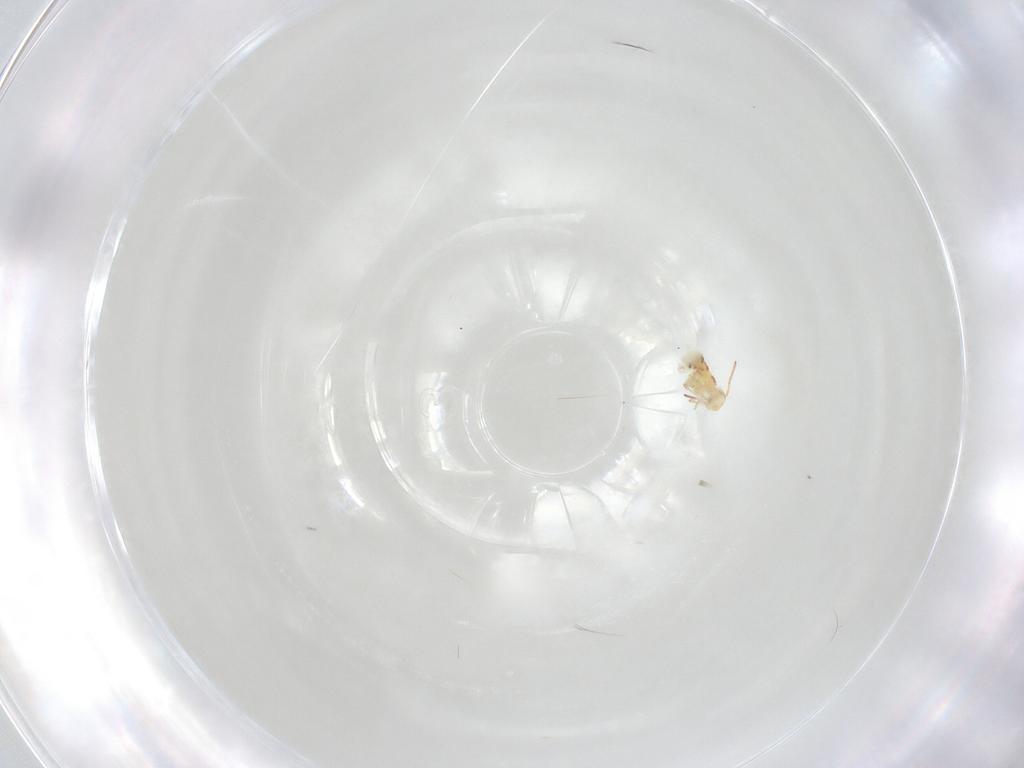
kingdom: Animalia
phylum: Arthropoda
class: Collembola
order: Symphypleona
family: Bourletiellidae
